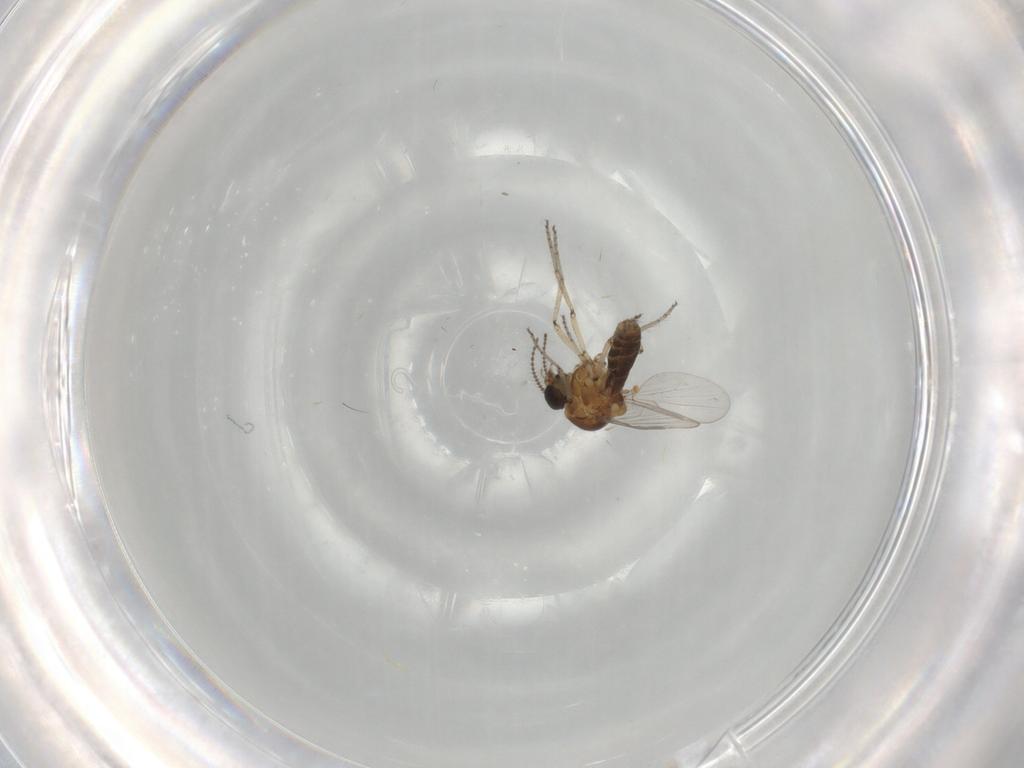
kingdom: Animalia
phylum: Arthropoda
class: Insecta
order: Diptera
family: Ceratopogonidae
